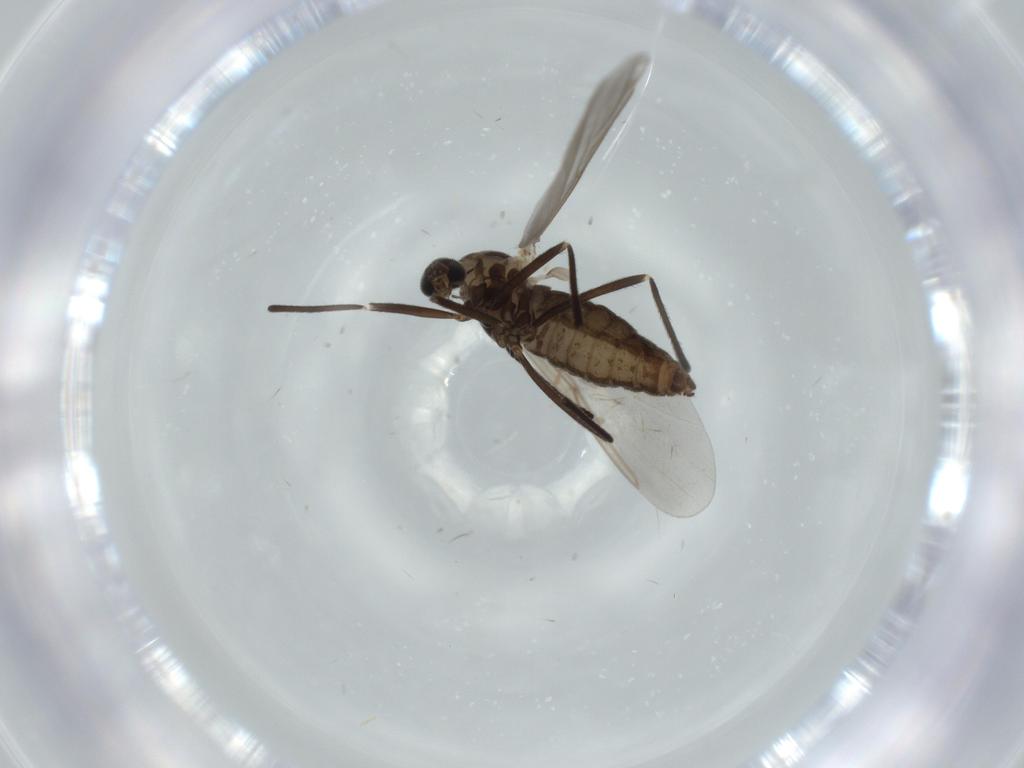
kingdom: Animalia
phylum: Arthropoda
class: Insecta
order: Diptera
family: Cecidomyiidae
